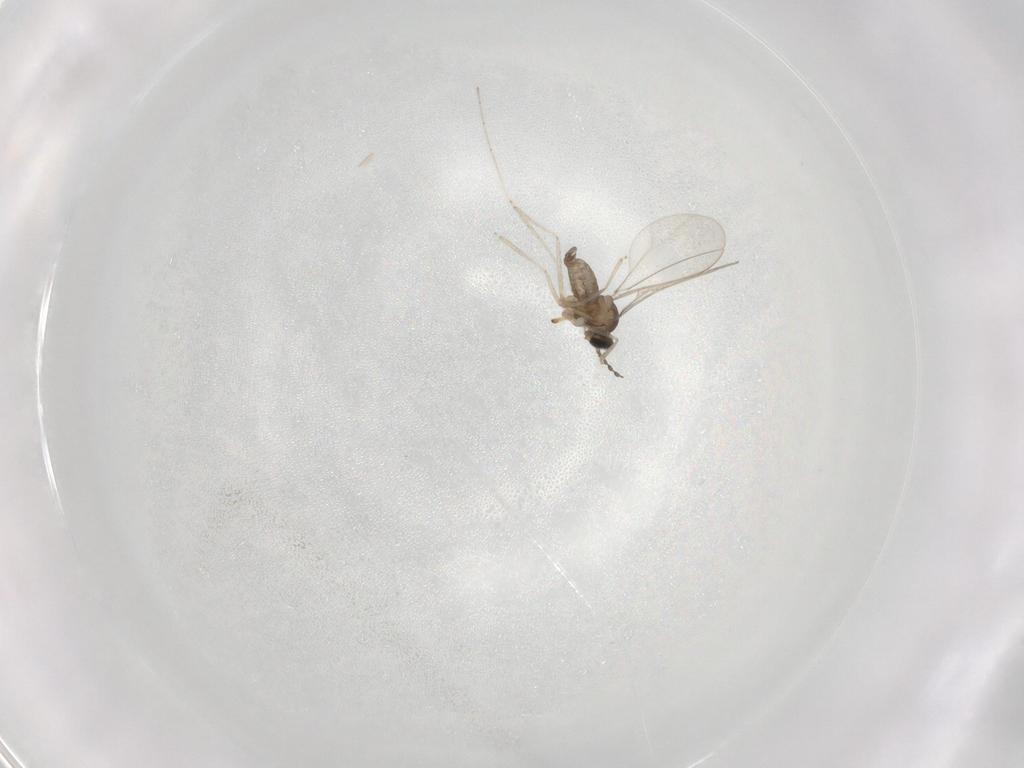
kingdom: Animalia
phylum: Arthropoda
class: Insecta
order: Diptera
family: Cecidomyiidae
